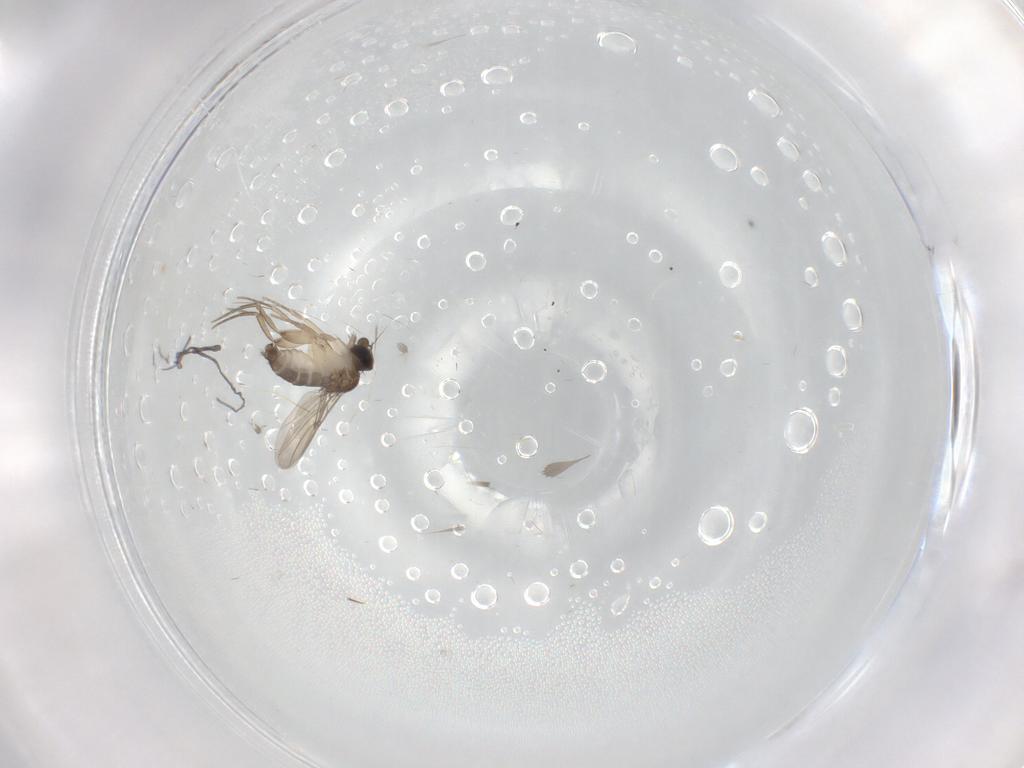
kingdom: Animalia
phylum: Arthropoda
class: Insecta
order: Diptera
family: Phoridae
